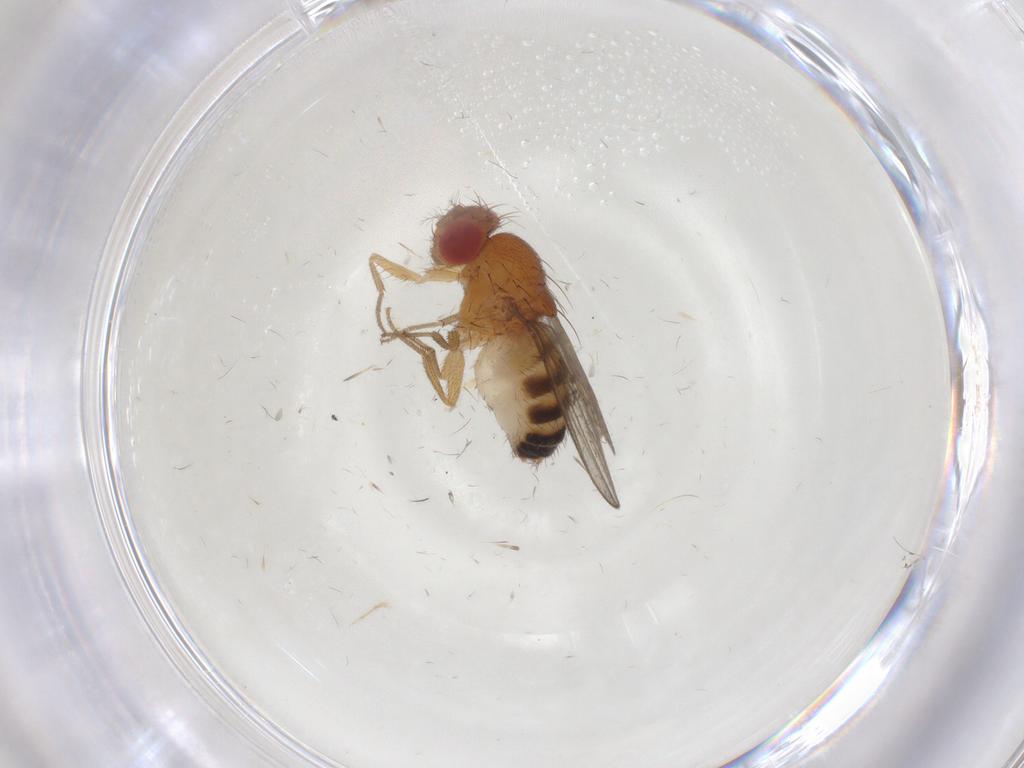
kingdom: Animalia
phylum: Arthropoda
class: Insecta
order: Diptera
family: Drosophilidae
